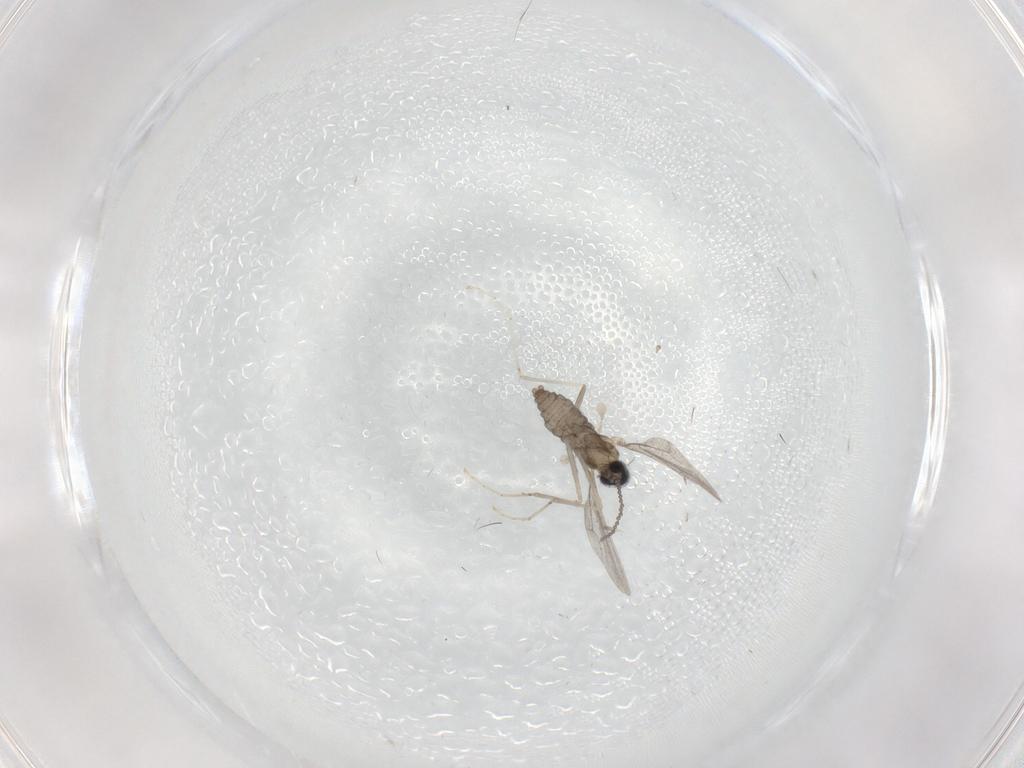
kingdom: Animalia
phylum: Arthropoda
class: Insecta
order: Diptera
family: Cecidomyiidae
